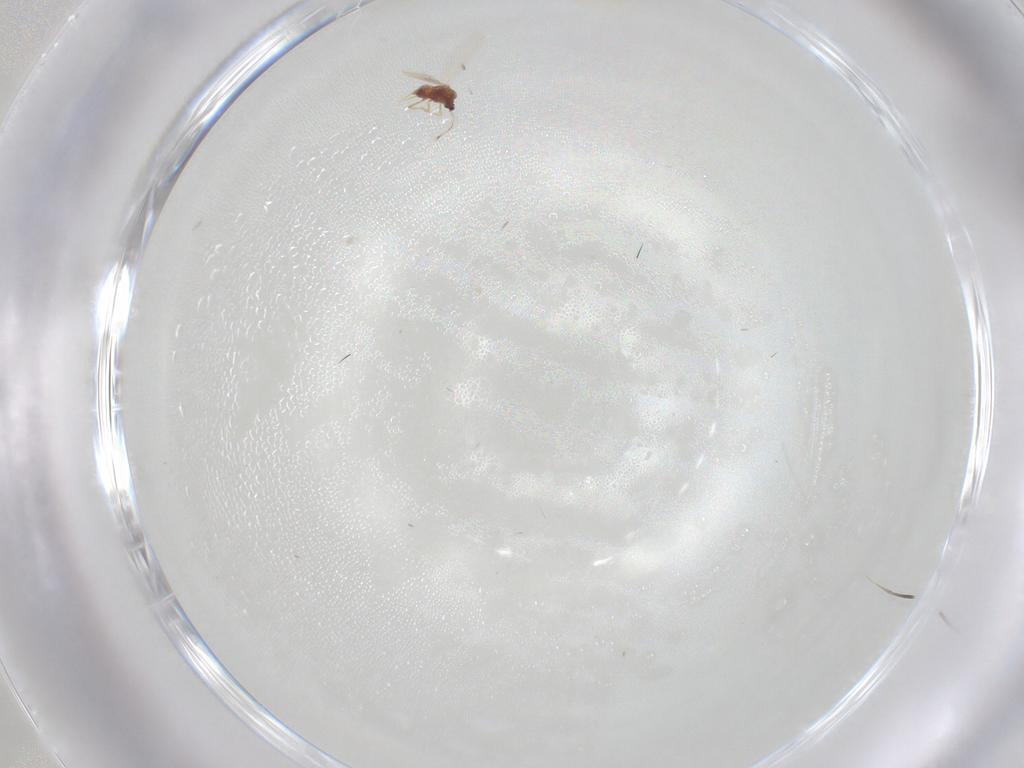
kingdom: Animalia
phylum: Arthropoda
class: Insecta
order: Hemiptera
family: Diaspididae
